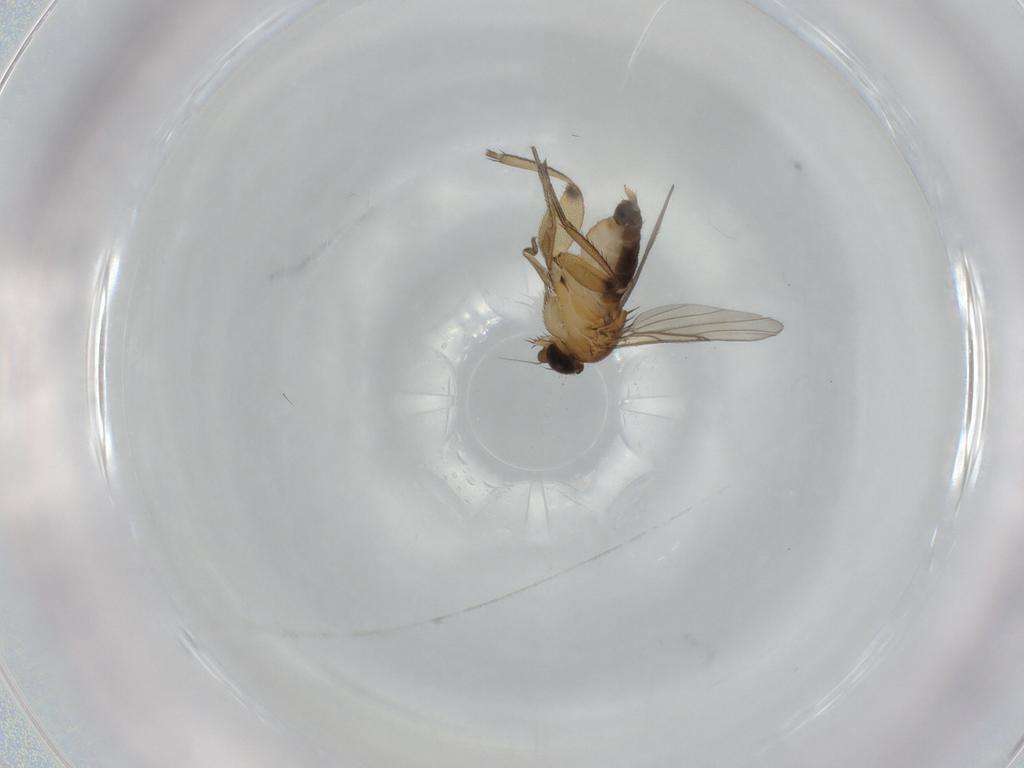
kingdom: Animalia
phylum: Arthropoda
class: Insecta
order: Diptera
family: Phoridae
